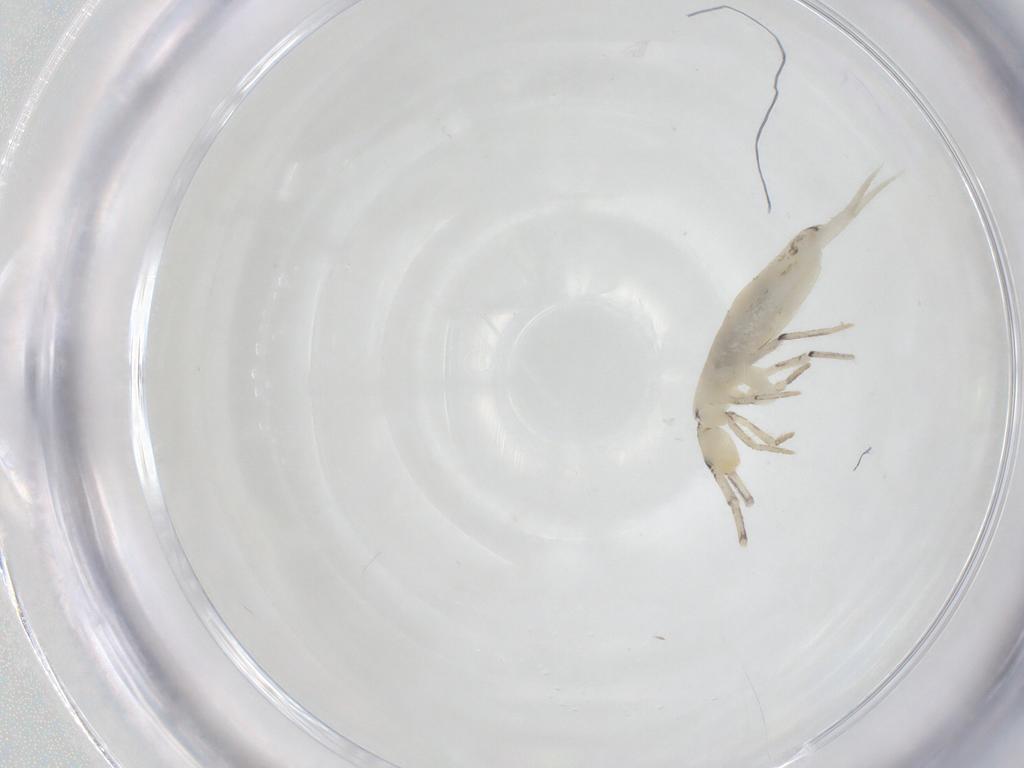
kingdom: Animalia
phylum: Arthropoda
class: Collembola
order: Entomobryomorpha
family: Entomobryidae
